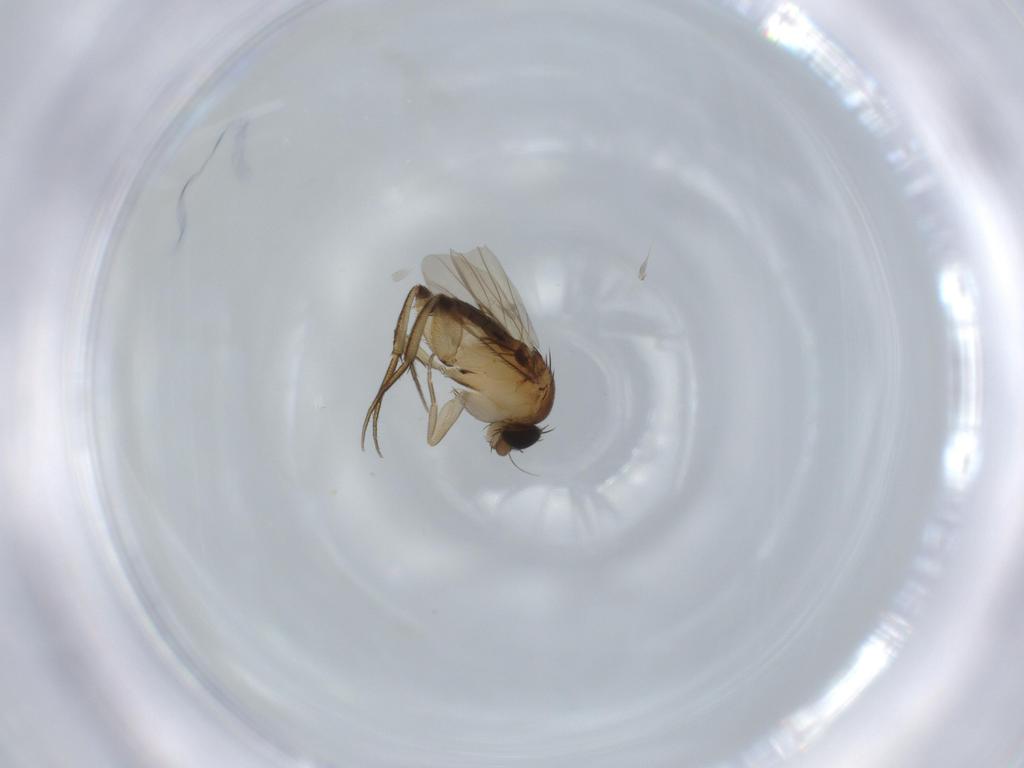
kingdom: Animalia
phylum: Arthropoda
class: Insecta
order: Diptera
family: Phoridae
